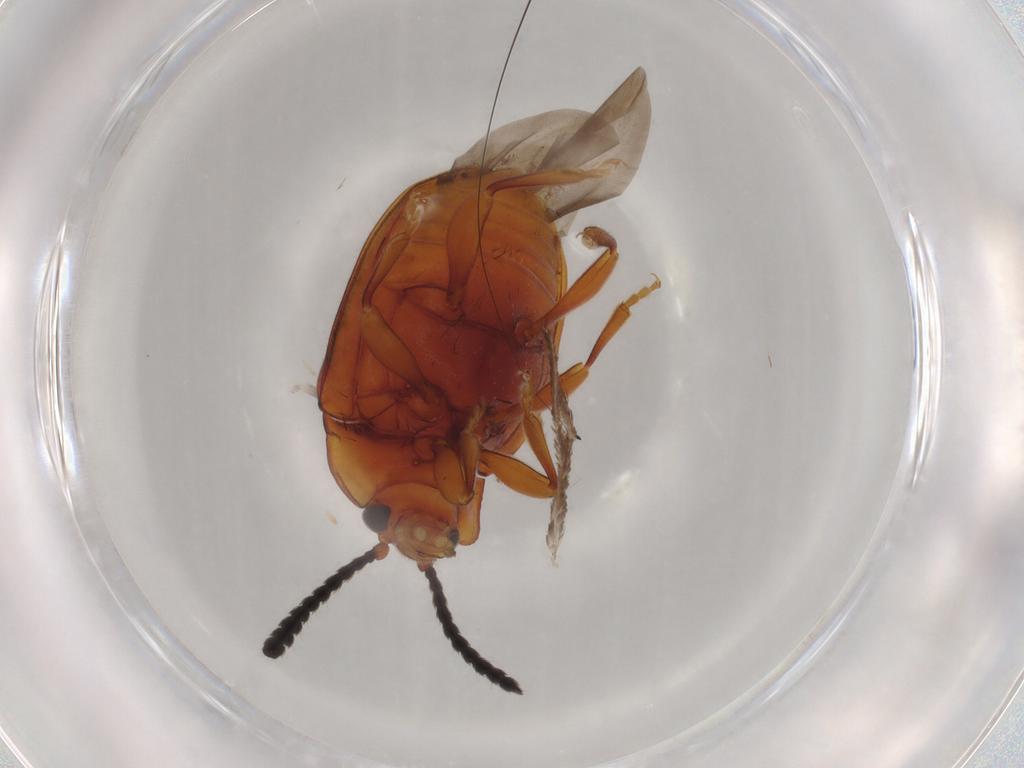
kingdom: Animalia
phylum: Arthropoda
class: Insecta
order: Coleoptera
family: Endomychidae
